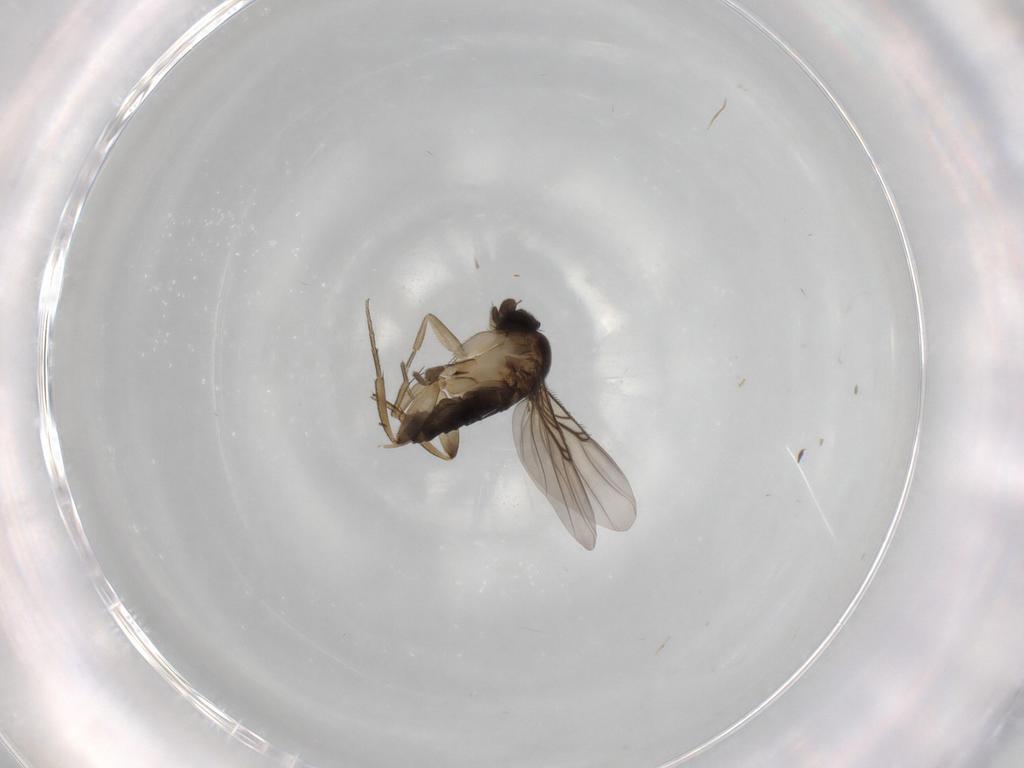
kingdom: Animalia
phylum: Arthropoda
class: Insecta
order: Diptera
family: Phoridae
